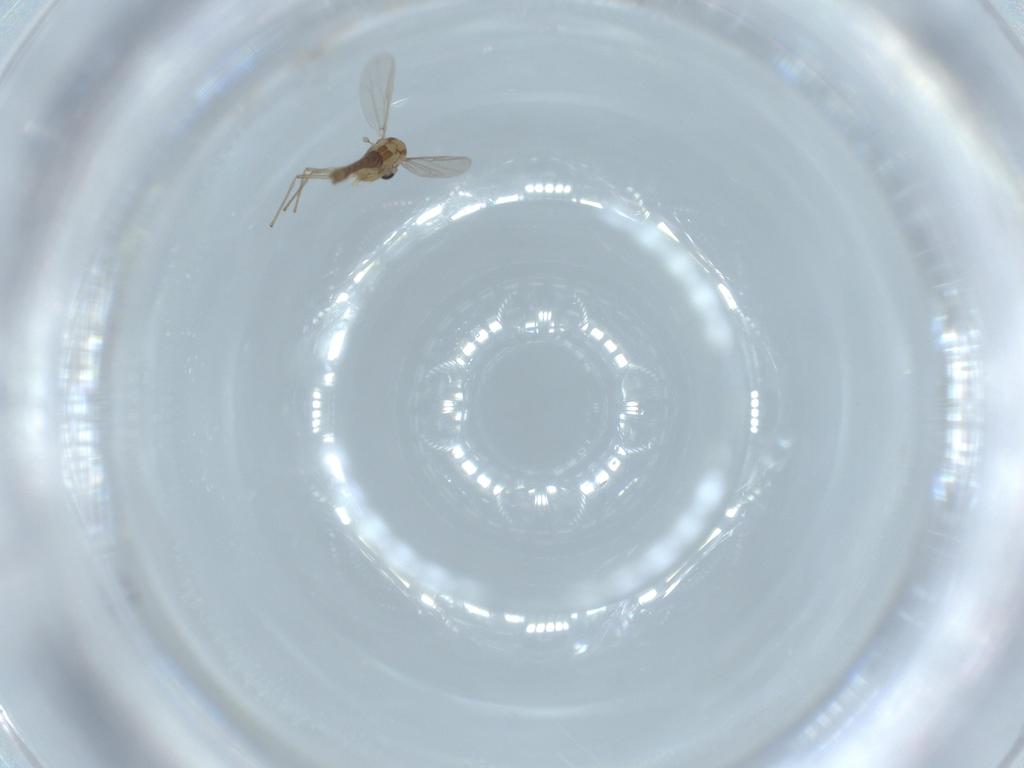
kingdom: Animalia
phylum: Arthropoda
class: Insecta
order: Diptera
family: Chironomidae
